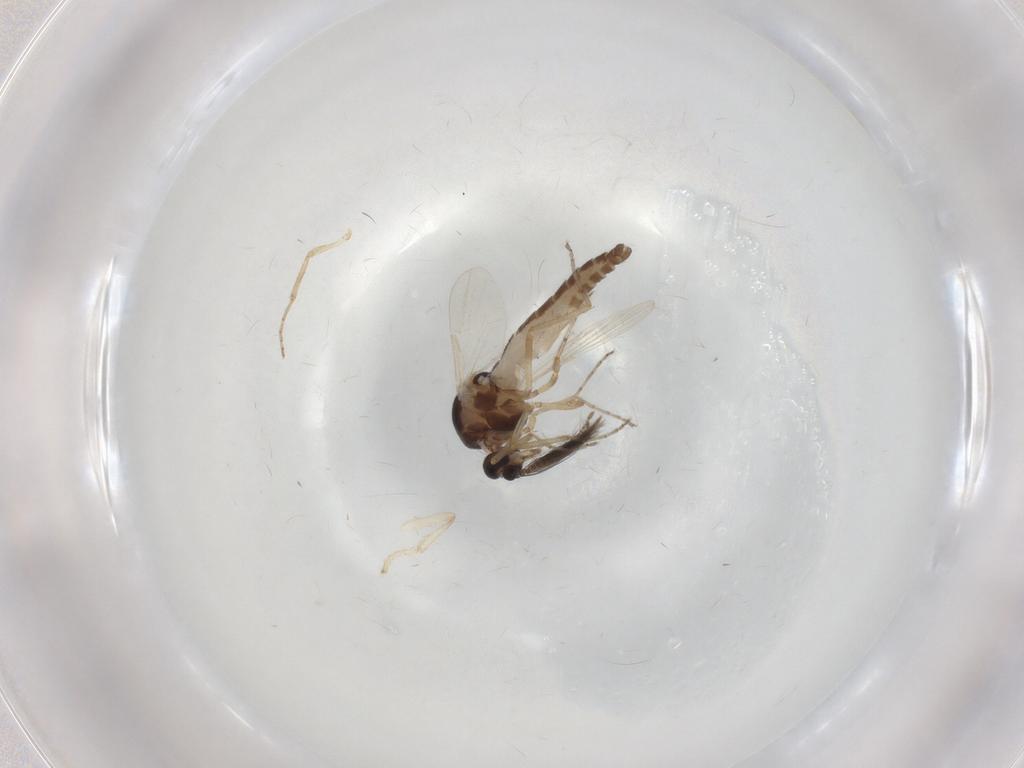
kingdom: Animalia
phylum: Arthropoda
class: Insecta
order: Diptera
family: Ceratopogonidae
